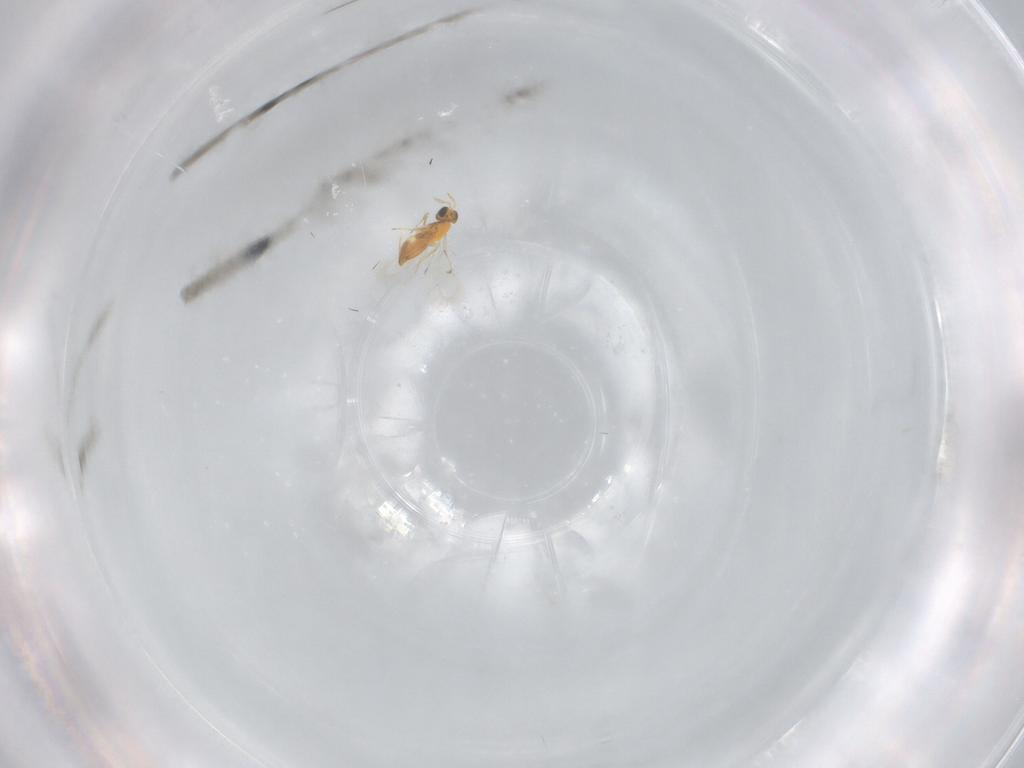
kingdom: Animalia
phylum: Arthropoda
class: Insecta
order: Hymenoptera
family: Trichogrammatidae
